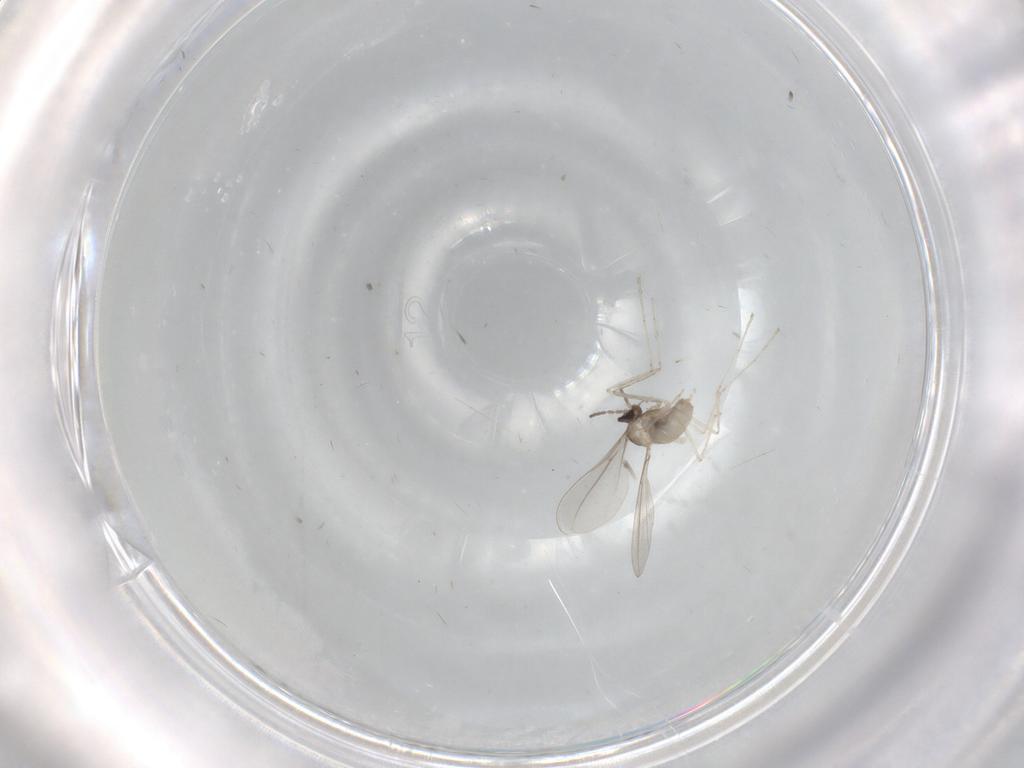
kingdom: Animalia
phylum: Arthropoda
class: Insecta
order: Diptera
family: Cecidomyiidae
